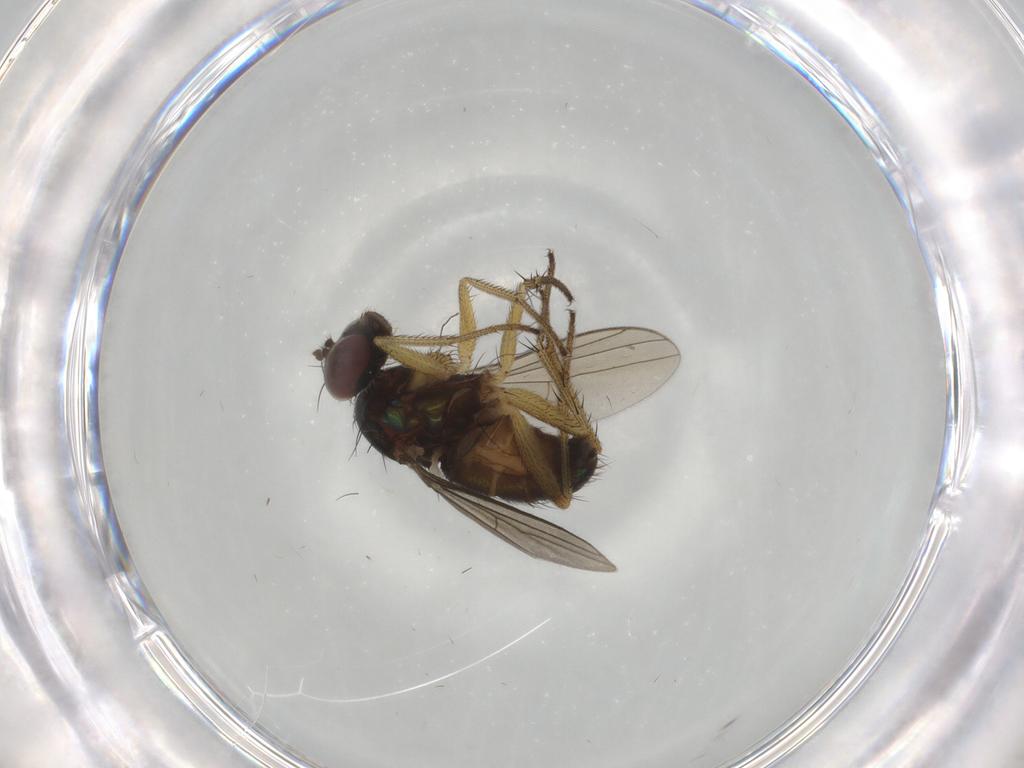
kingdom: Animalia
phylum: Arthropoda
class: Insecta
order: Diptera
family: Dolichopodidae
